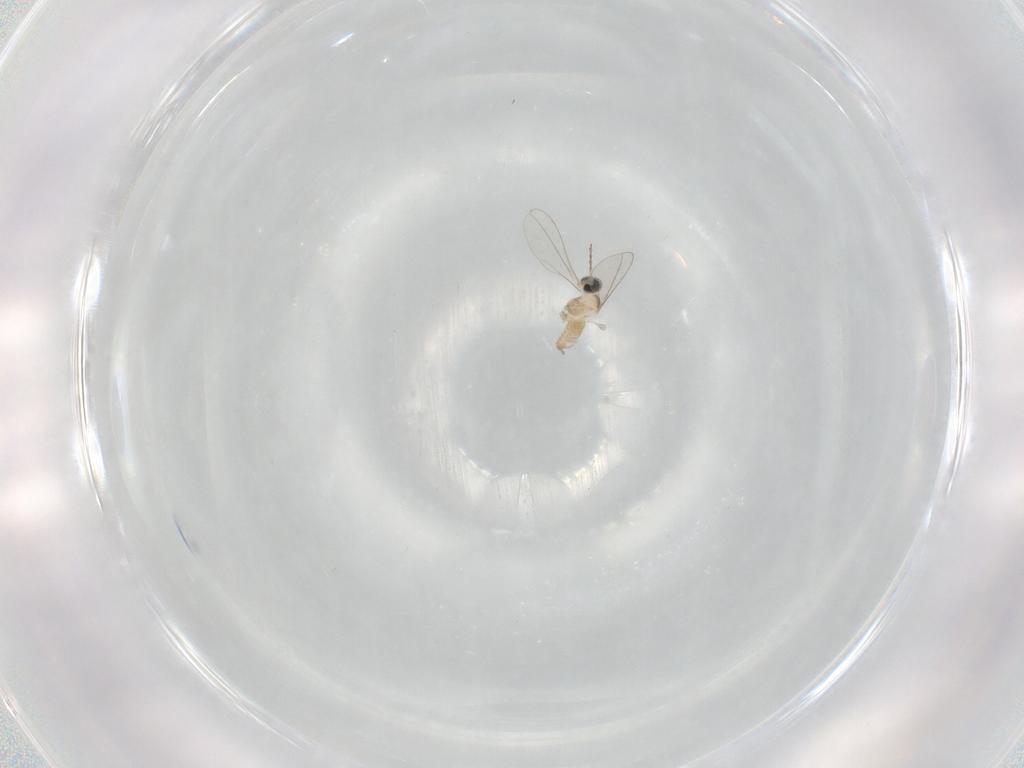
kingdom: Animalia
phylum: Arthropoda
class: Insecta
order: Diptera
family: Cecidomyiidae
